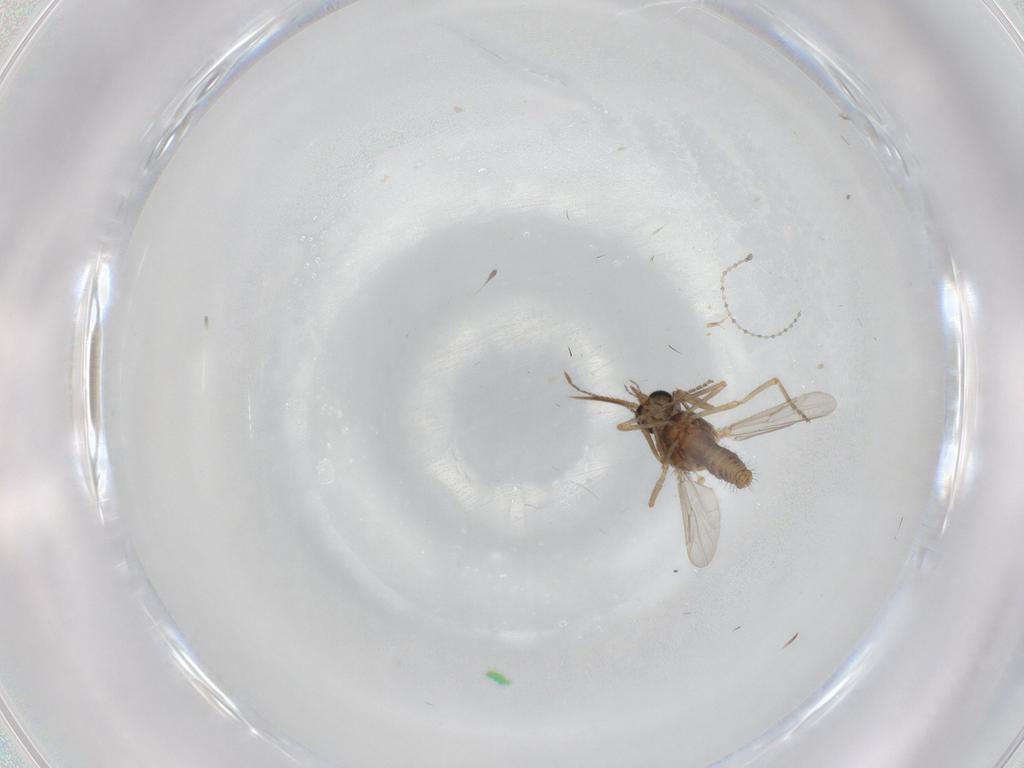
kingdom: Animalia
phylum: Arthropoda
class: Insecta
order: Diptera
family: Ceratopogonidae
